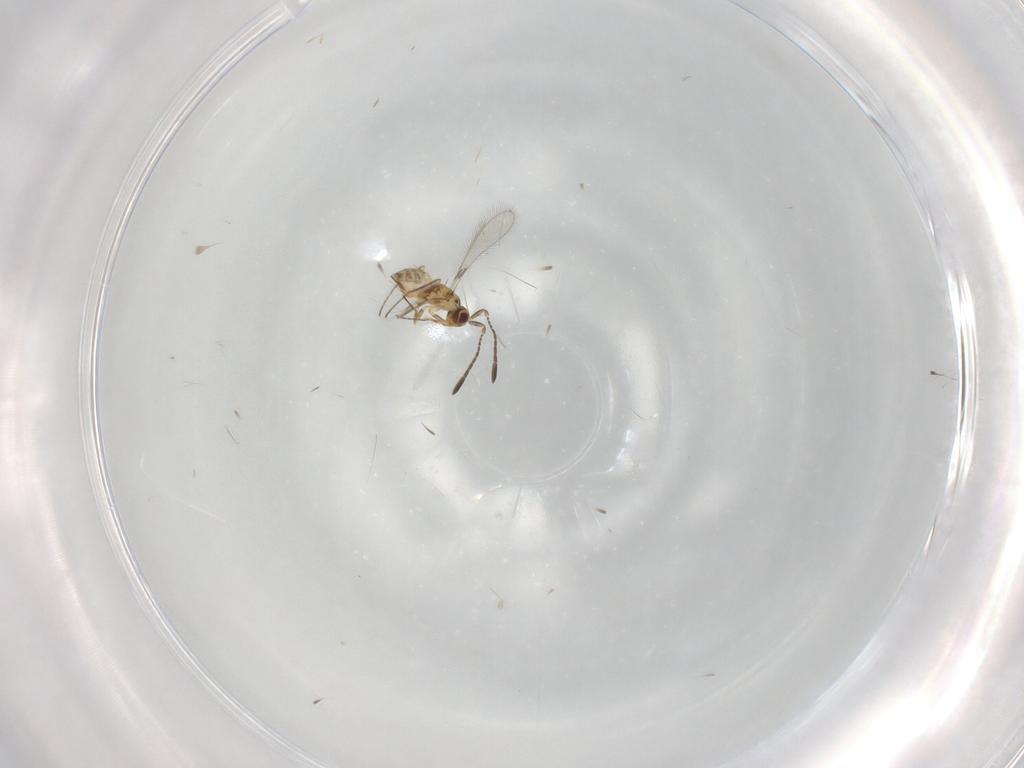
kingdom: Animalia
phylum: Arthropoda
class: Insecta
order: Hymenoptera
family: Mymaridae
